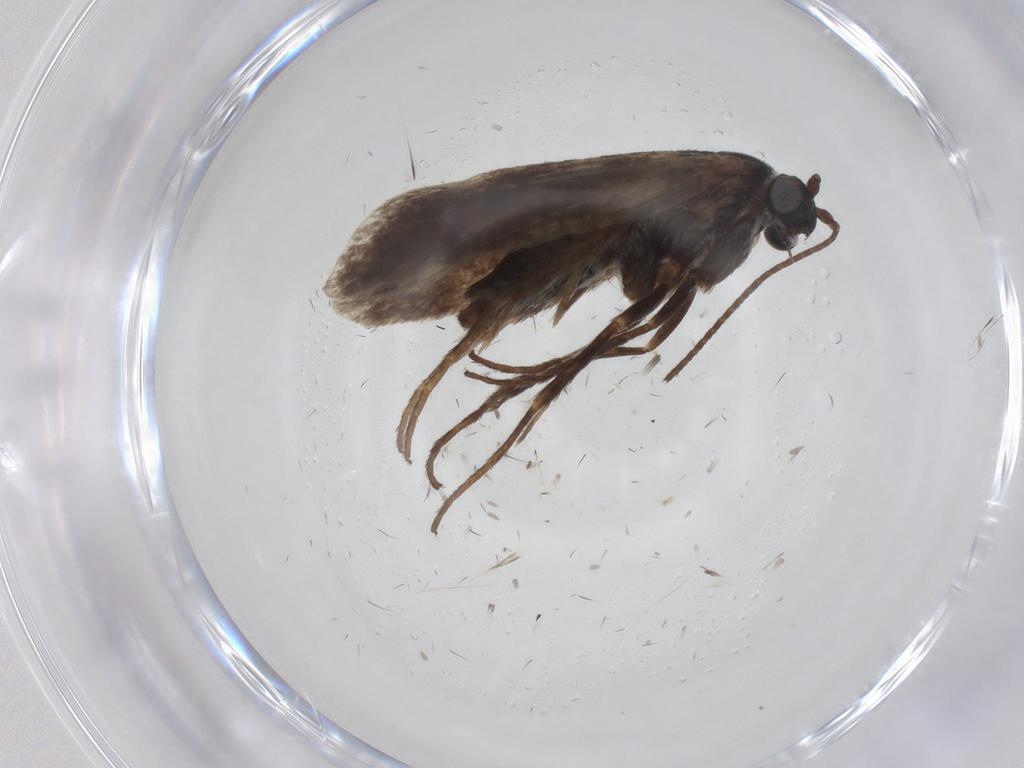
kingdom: Animalia
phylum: Arthropoda
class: Insecta
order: Lepidoptera
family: Adelidae
